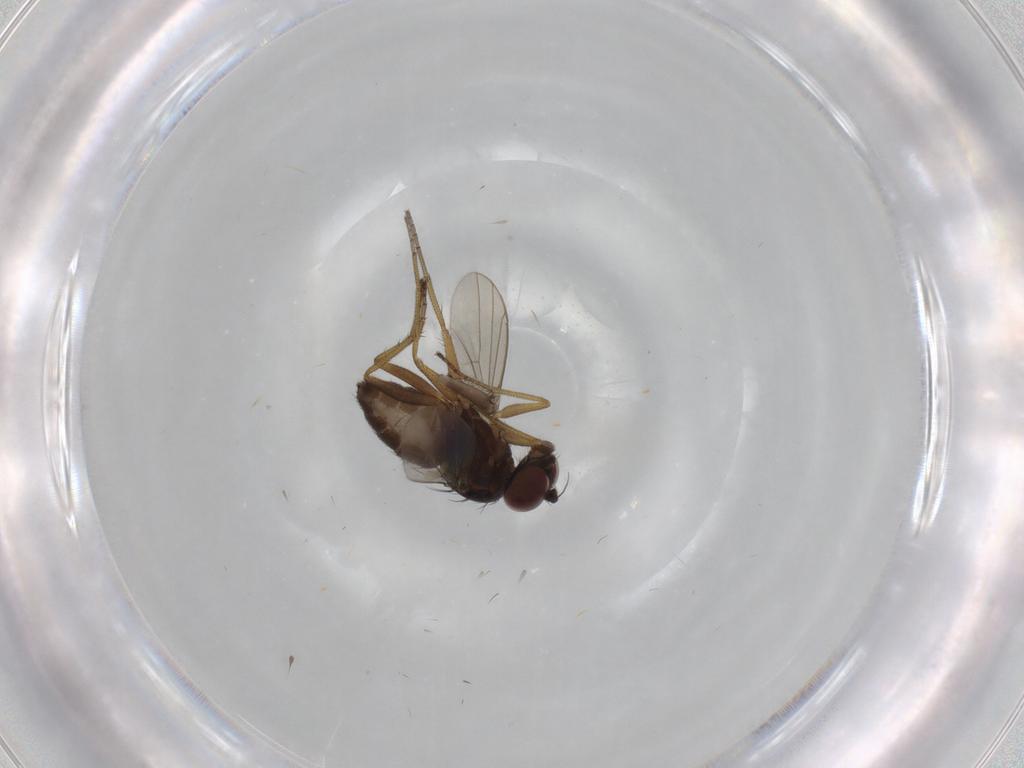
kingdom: Animalia
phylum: Arthropoda
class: Insecta
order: Diptera
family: Dolichopodidae
